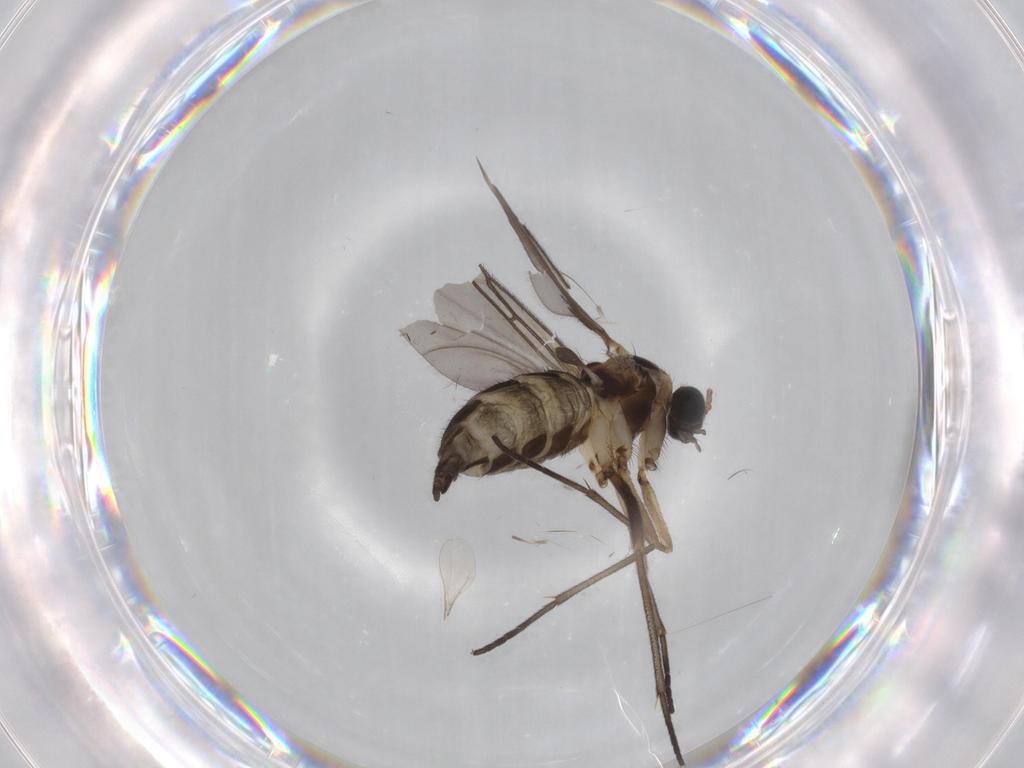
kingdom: Animalia
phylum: Arthropoda
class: Insecta
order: Diptera
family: Sciaridae
